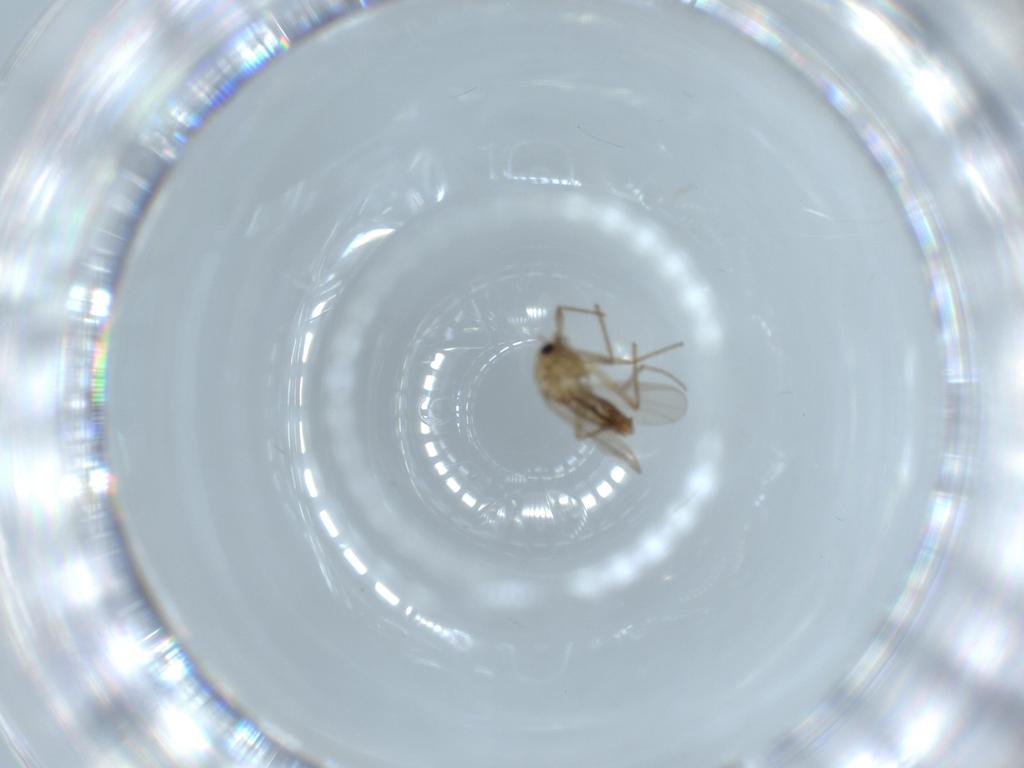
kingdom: Animalia
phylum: Arthropoda
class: Insecta
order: Diptera
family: Chironomidae
